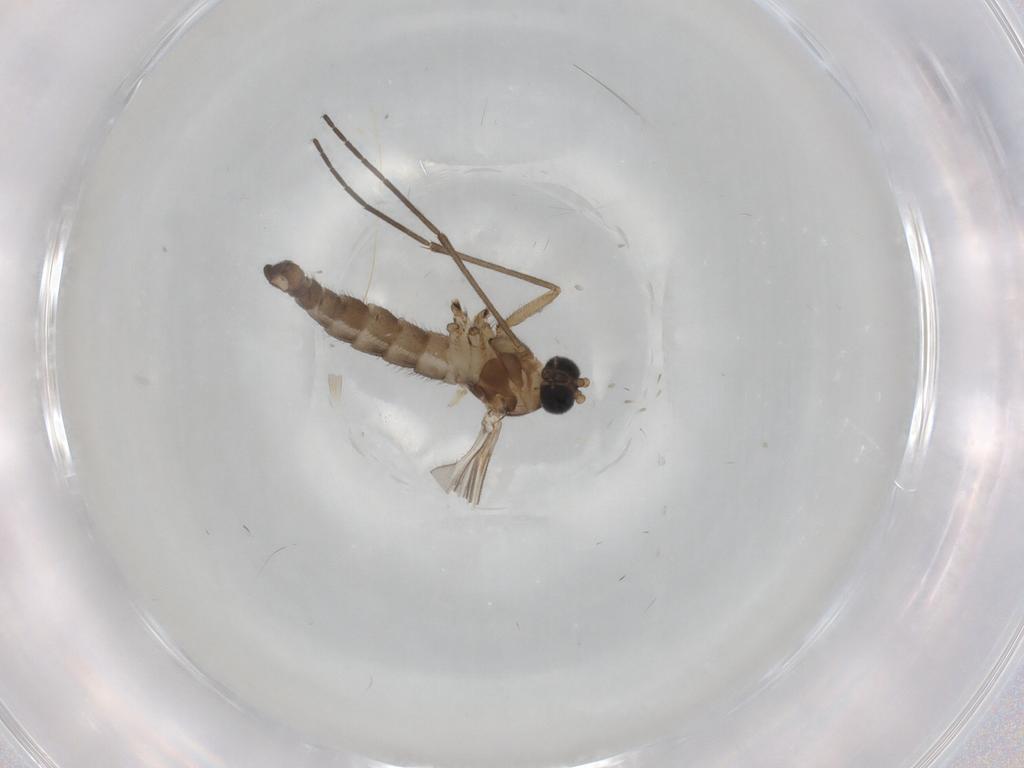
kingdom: Animalia
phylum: Arthropoda
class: Insecta
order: Diptera
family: Sciaridae
